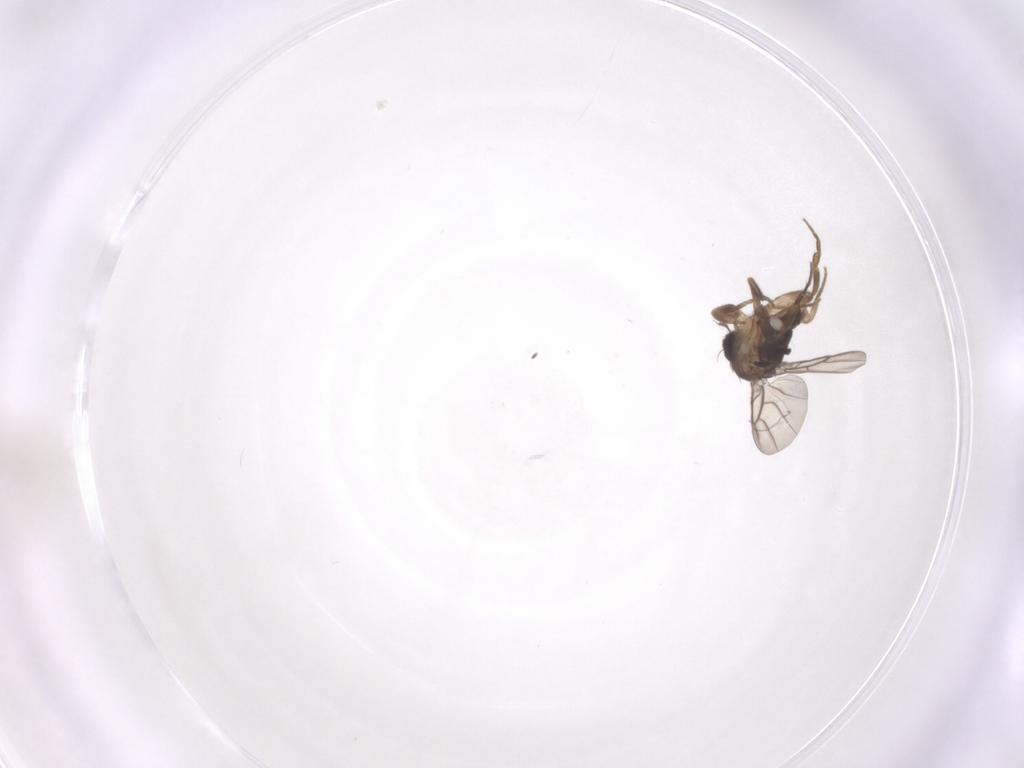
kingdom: Animalia
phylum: Arthropoda
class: Insecta
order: Diptera
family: Phoridae
